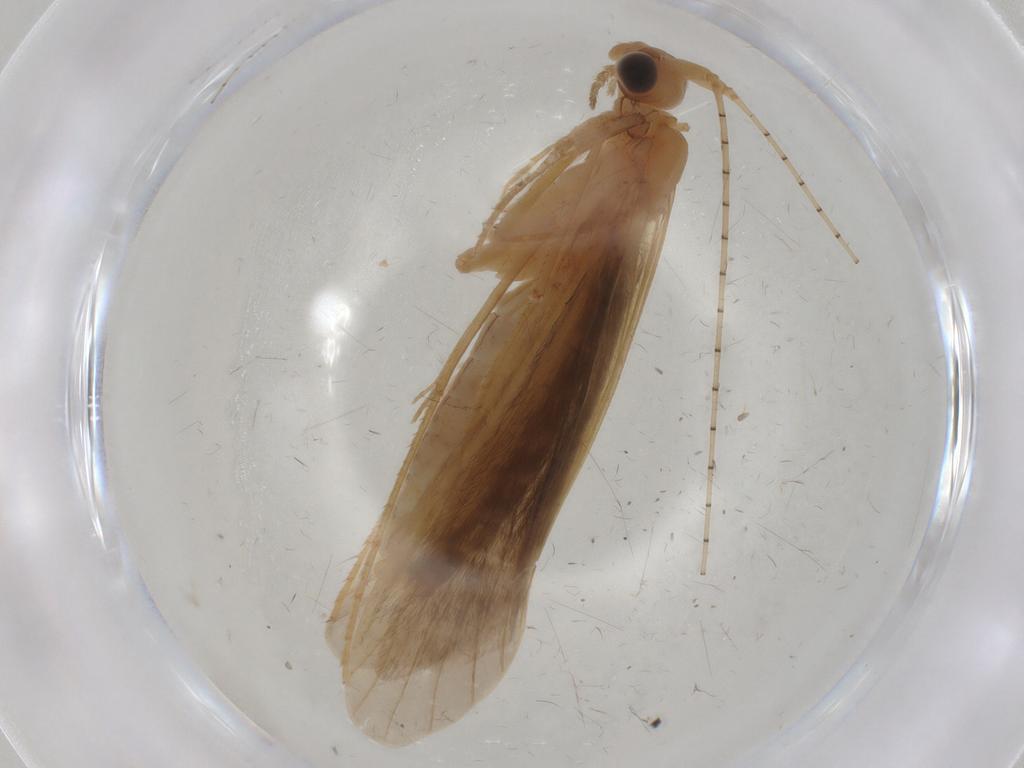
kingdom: Animalia
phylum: Arthropoda
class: Insecta
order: Trichoptera
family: Leptoceridae
